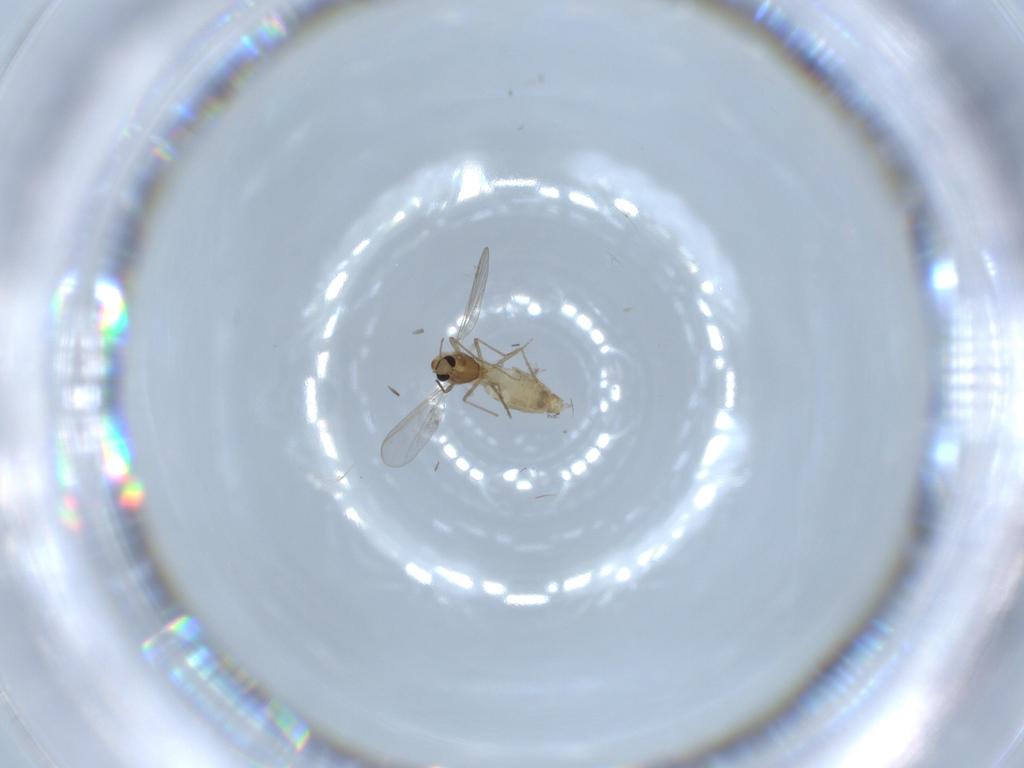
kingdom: Animalia
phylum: Arthropoda
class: Insecta
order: Diptera
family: Chironomidae
